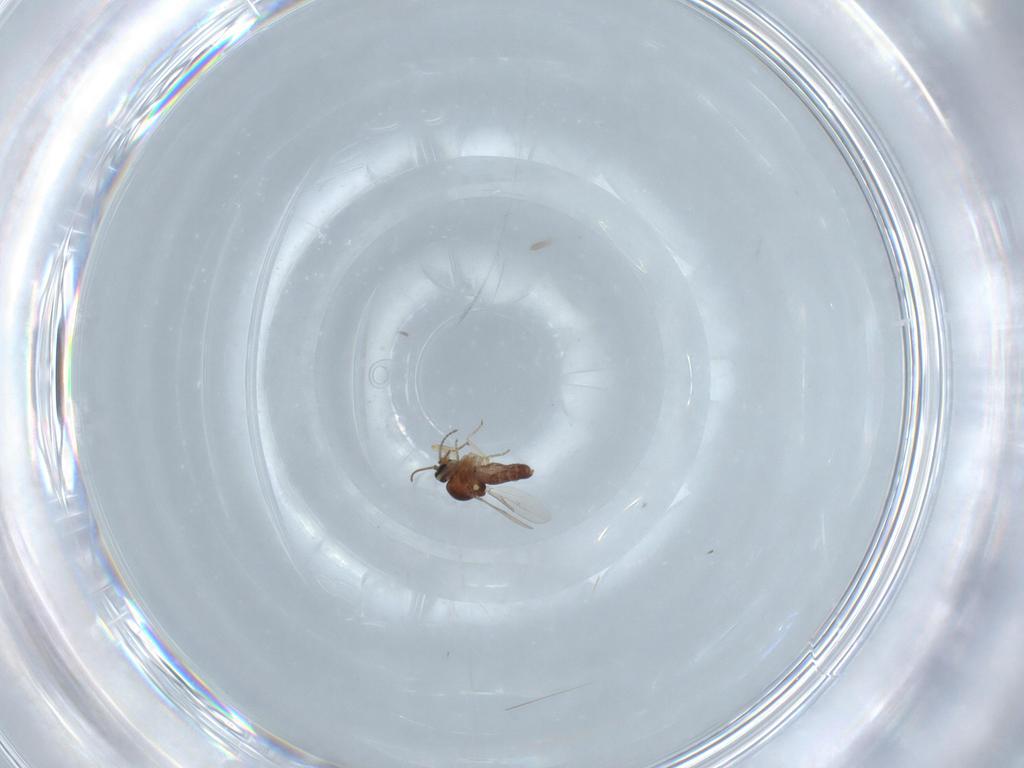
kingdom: Animalia
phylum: Arthropoda
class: Insecta
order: Diptera
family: Ceratopogonidae
